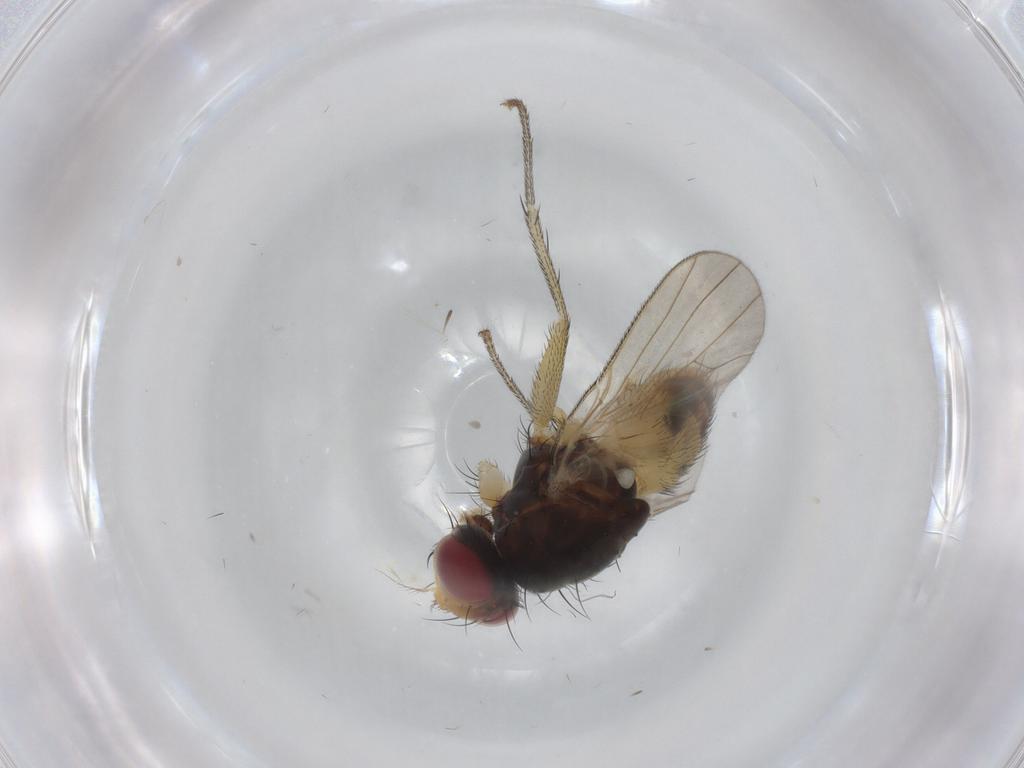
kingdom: Animalia
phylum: Arthropoda
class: Insecta
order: Diptera
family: Muscidae
